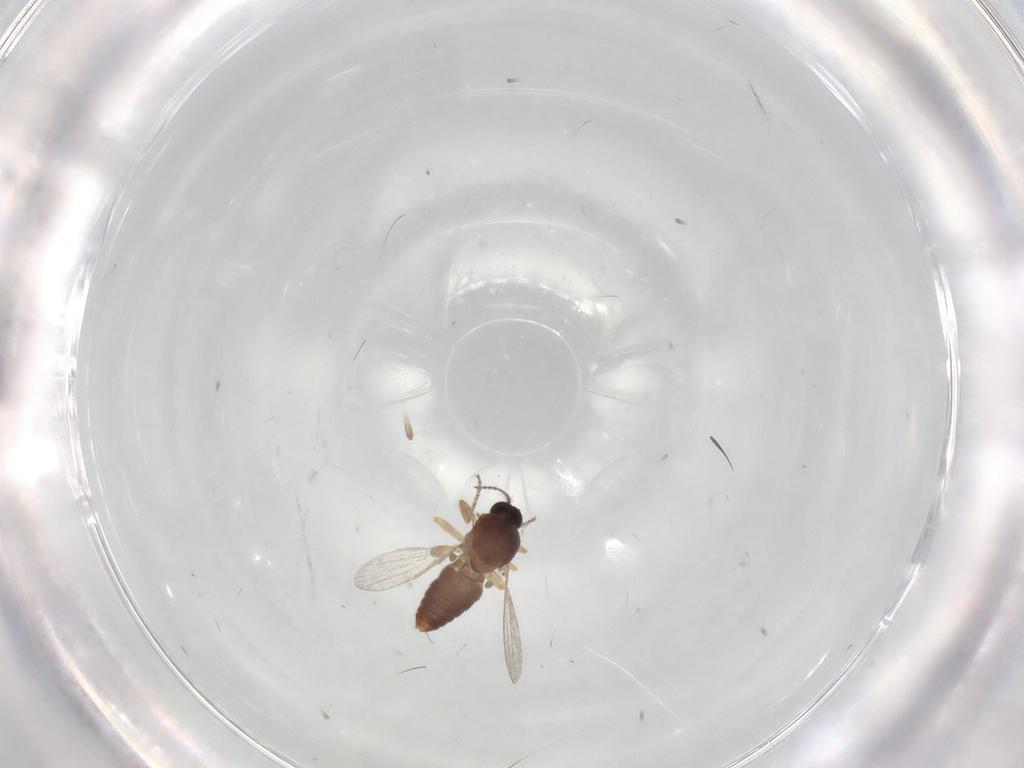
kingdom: Animalia
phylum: Arthropoda
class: Insecta
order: Diptera
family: Ceratopogonidae
